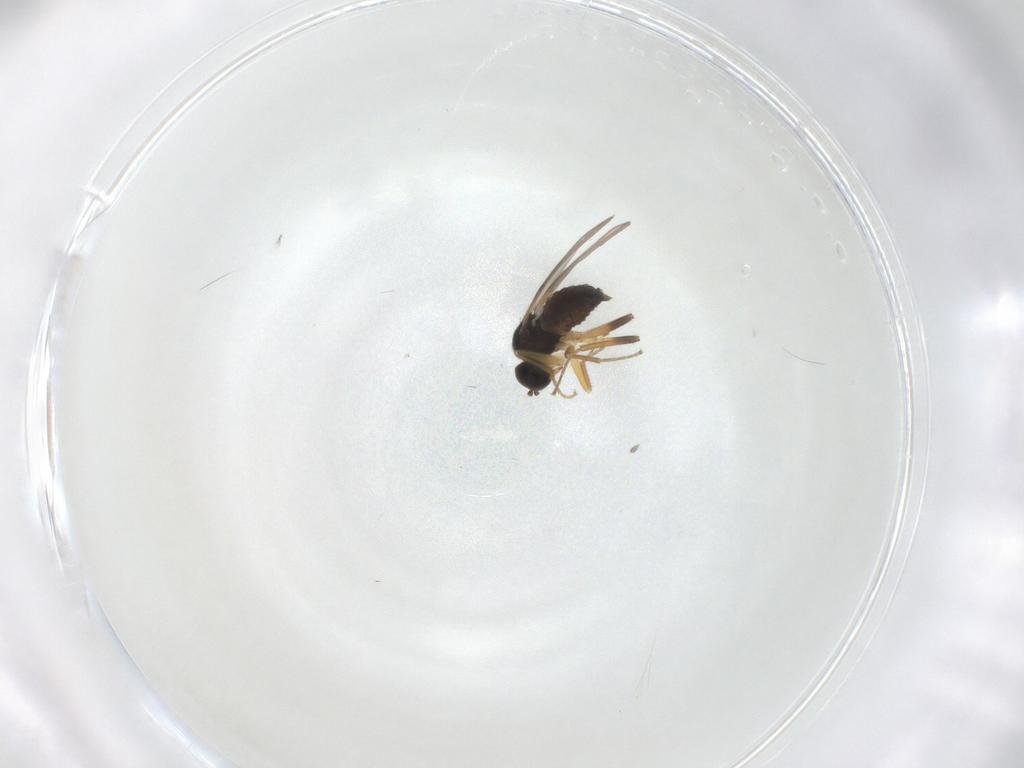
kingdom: Animalia
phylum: Arthropoda
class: Insecta
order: Diptera
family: Hybotidae
